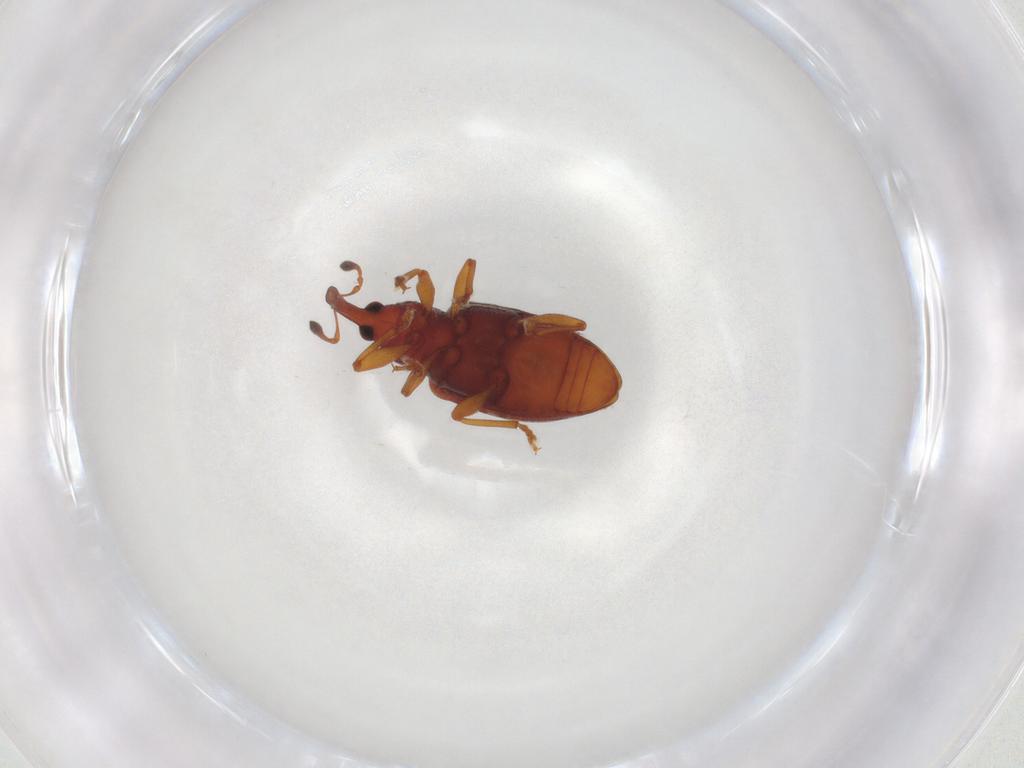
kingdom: Animalia
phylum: Arthropoda
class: Insecta
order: Coleoptera
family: Curculionidae
